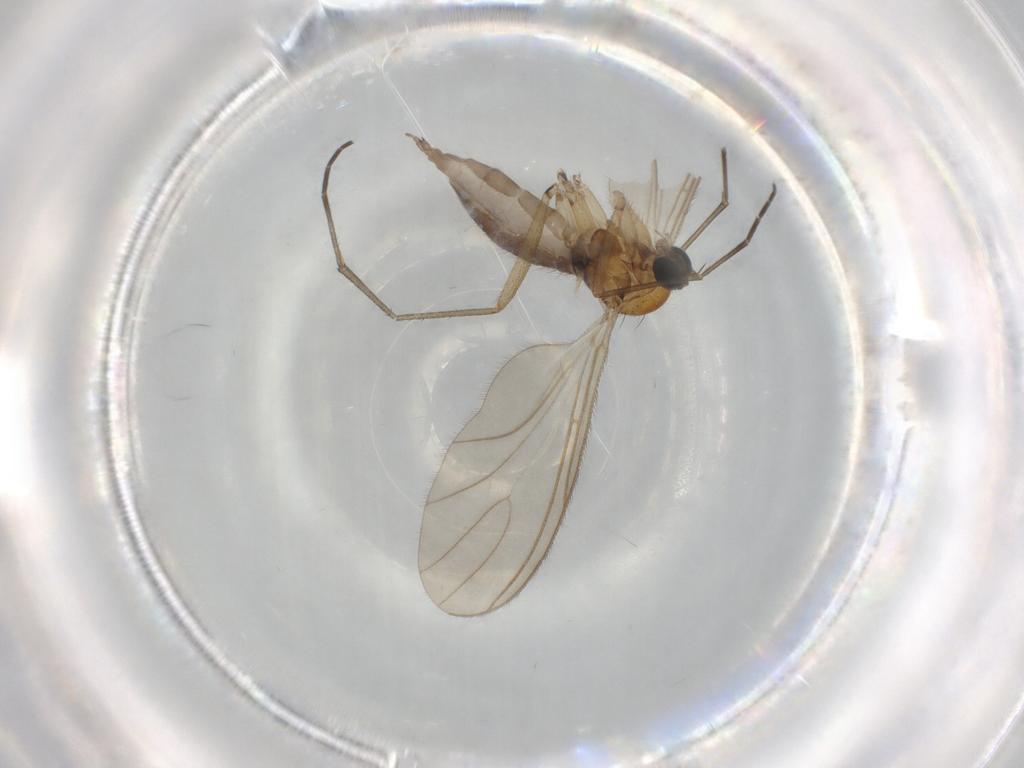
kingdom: Animalia
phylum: Arthropoda
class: Insecta
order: Diptera
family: Sciaridae
